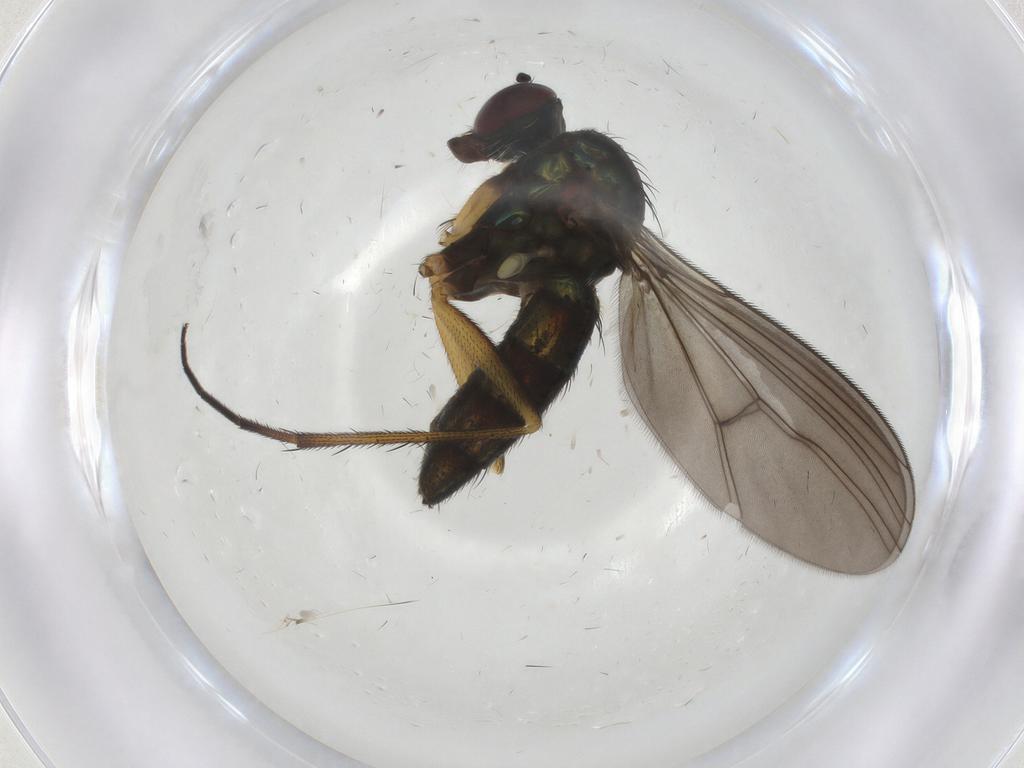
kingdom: Animalia
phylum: Arthropoda
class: Insecta
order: Diptera
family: Dolichopodidae
